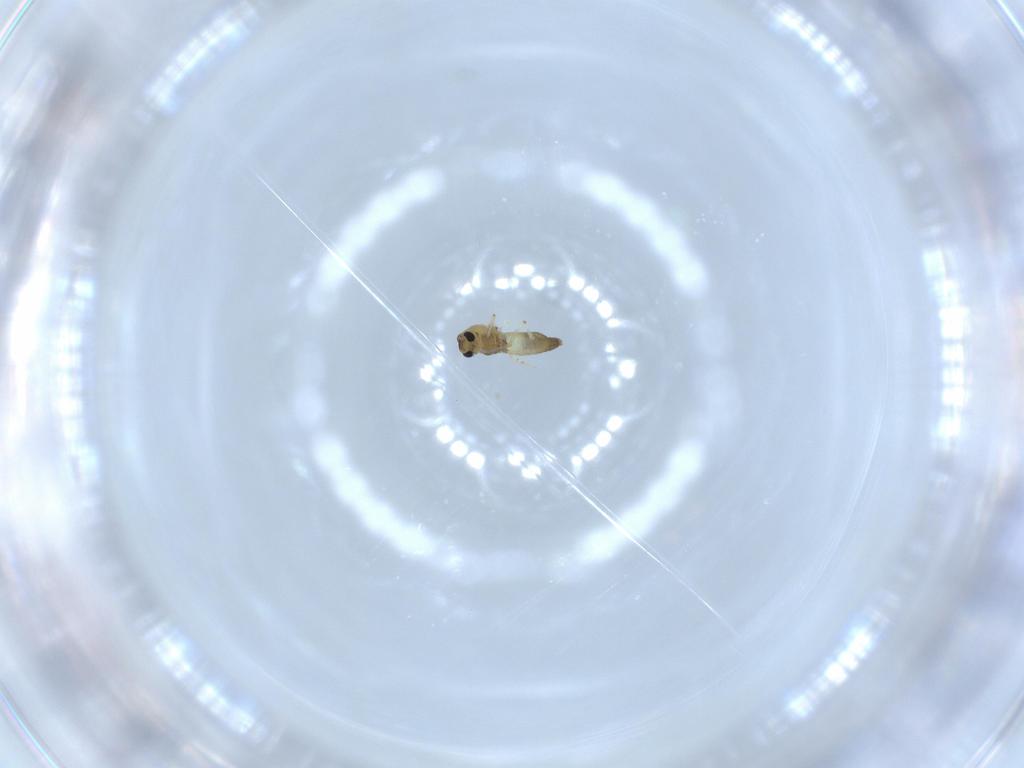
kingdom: Animalia
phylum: Arthropoda
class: Insecta
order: Diptera
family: Chironomidae
